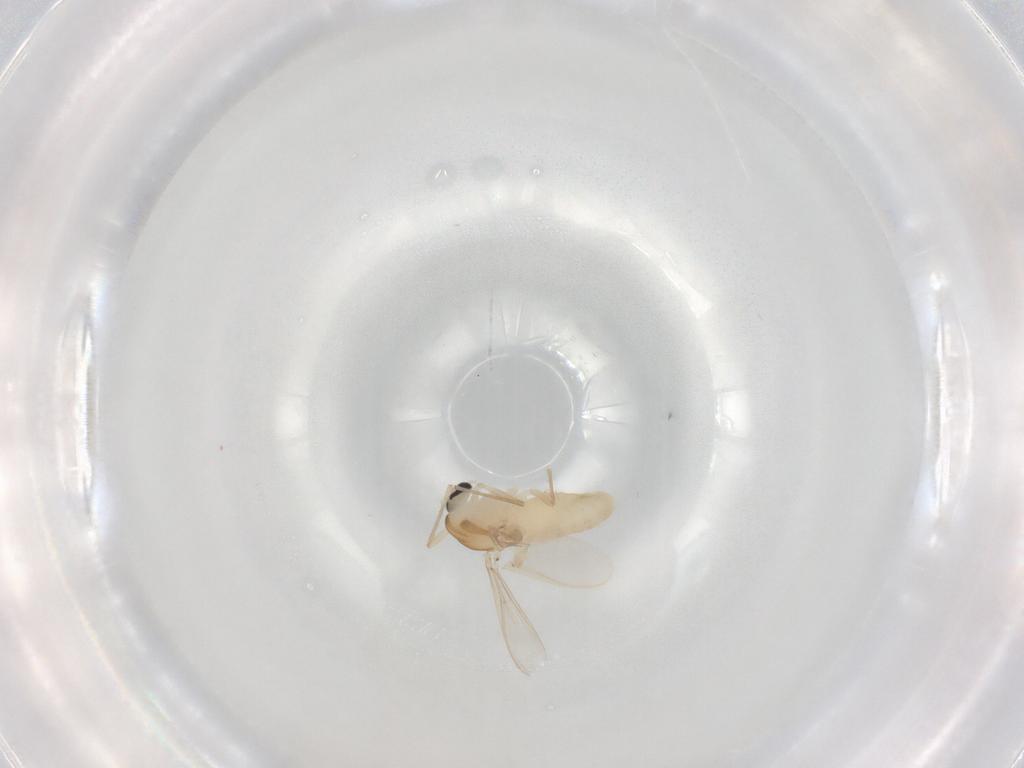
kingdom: Animalia
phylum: Arthropoda
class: Insecta
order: Diptera
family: Chironomidae
